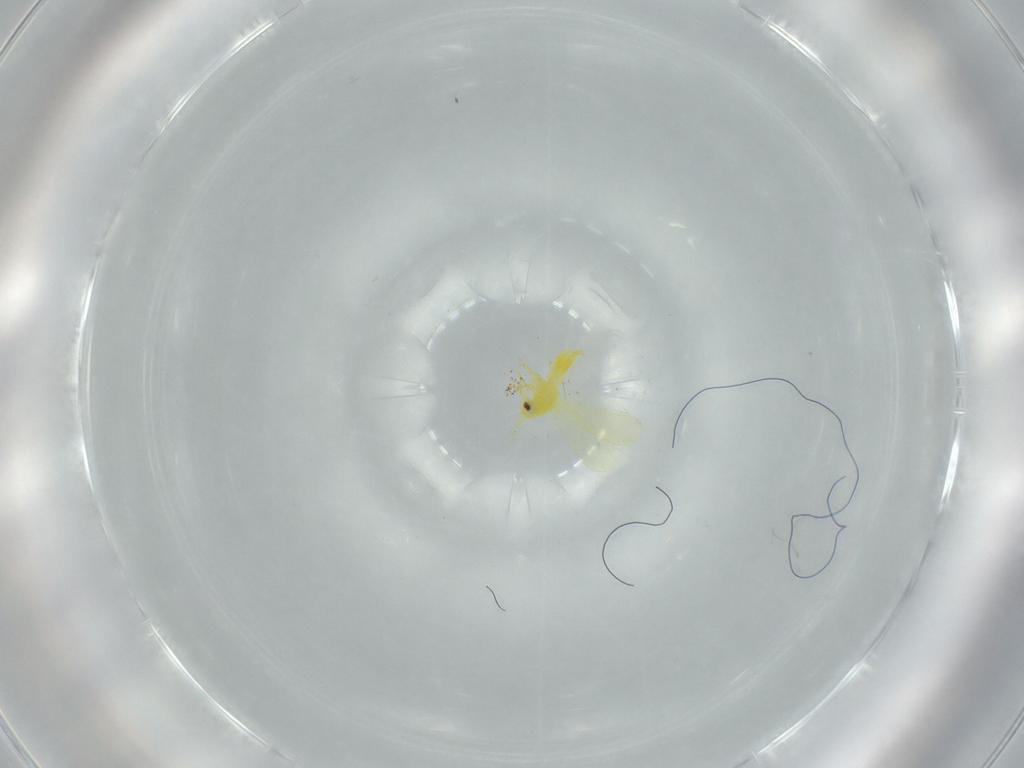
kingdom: Animalia
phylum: Arthropoda
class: Insecta
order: Hemiptera
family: Aleyrodidae
